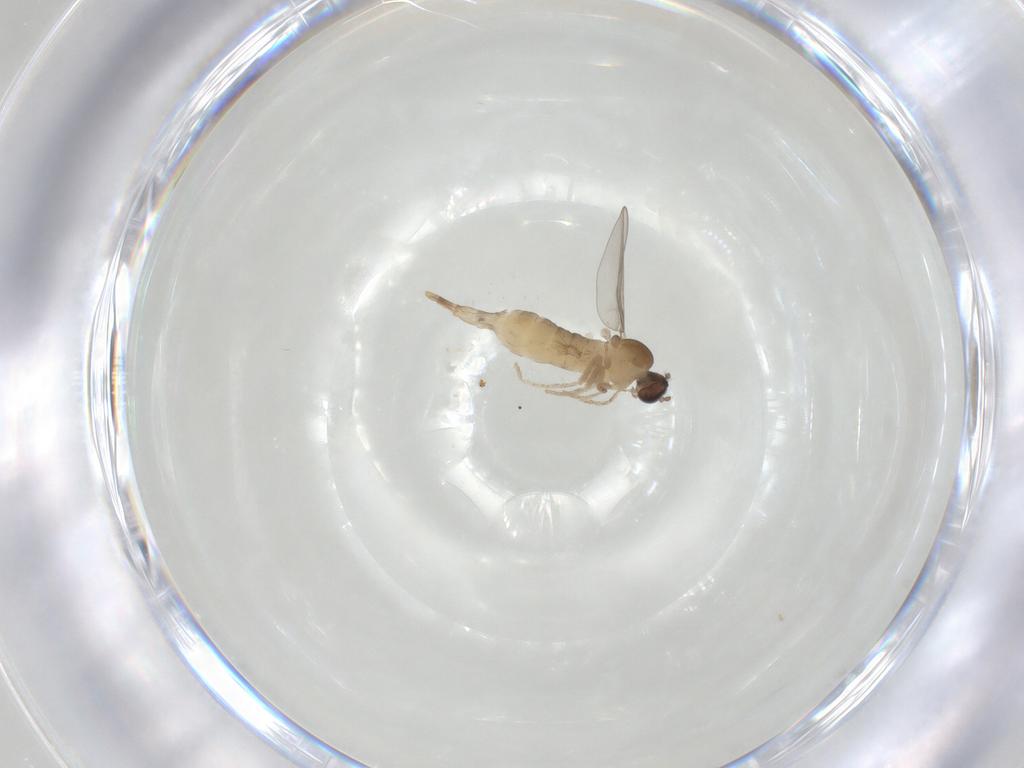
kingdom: Animalia
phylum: Arthropoda
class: Insecta
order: Diptera
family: Cecidomyiidae
